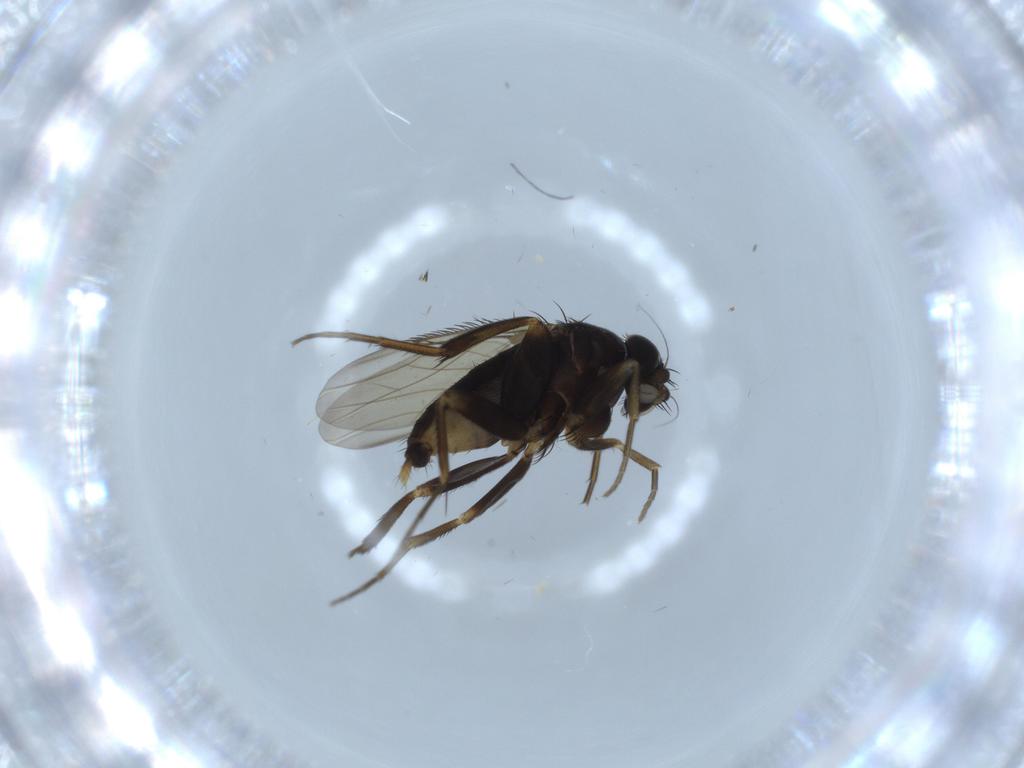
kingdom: Animalia
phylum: Arthropoda
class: Insecta
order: Diptera
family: Phoridae
